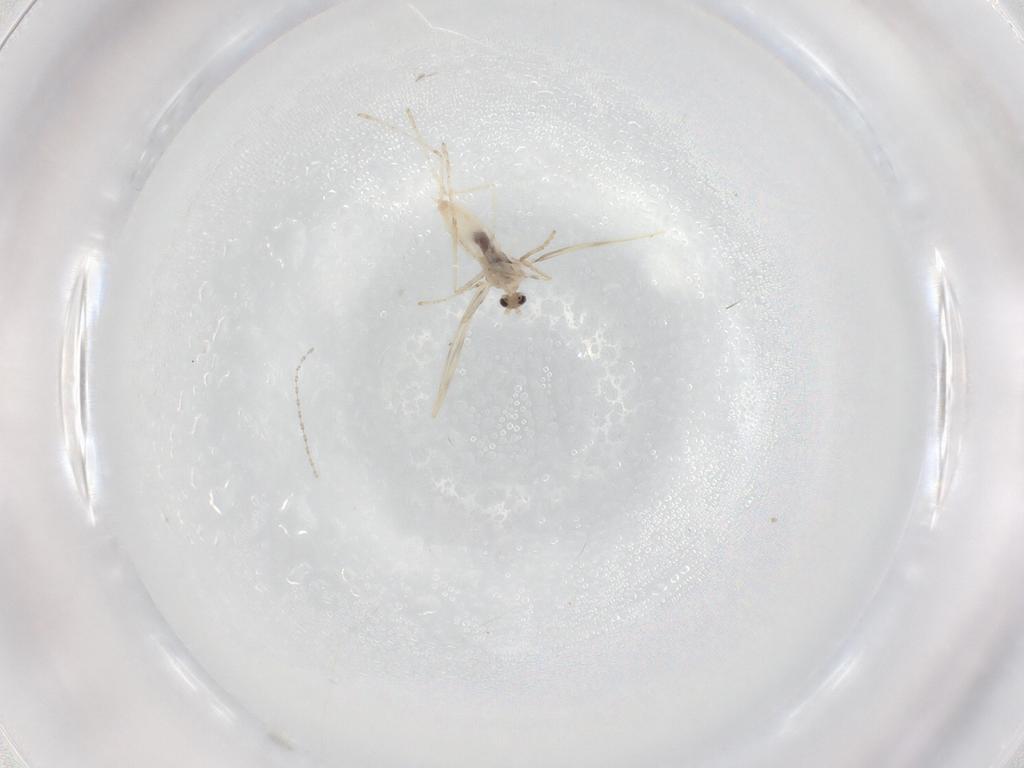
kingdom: Animalia
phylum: Arthropoda
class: Insecta
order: Diptera
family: Cecidomyiidae
